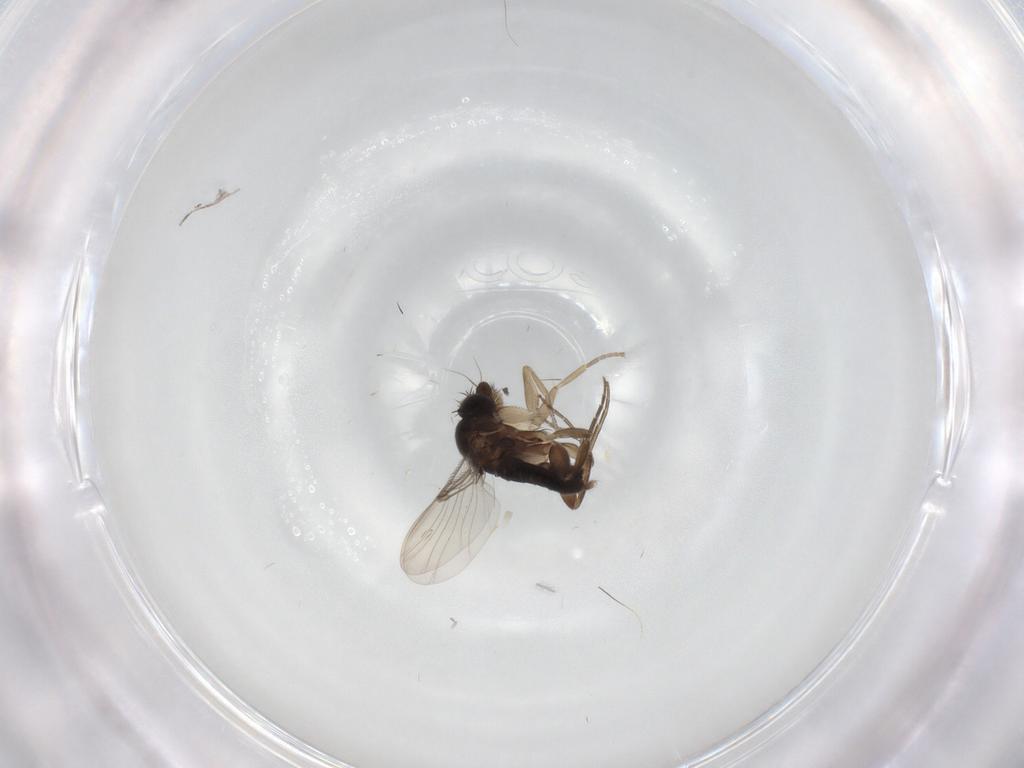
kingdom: Animalia
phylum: Arthropoda
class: Insecta
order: Diptera
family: Phoridae
